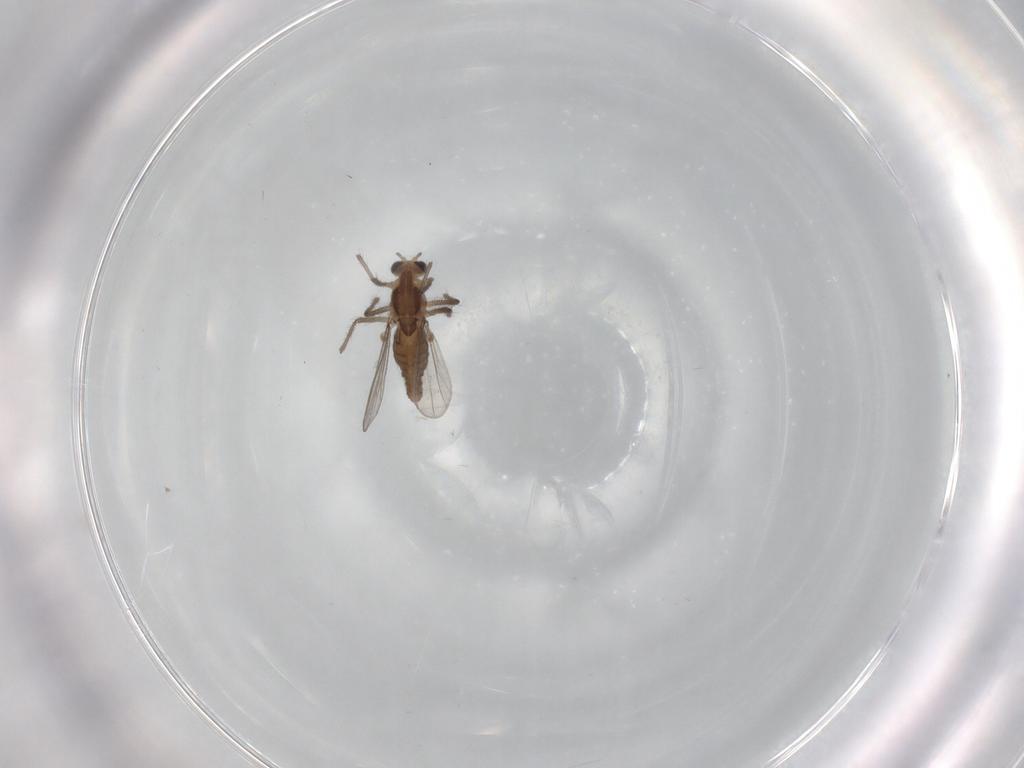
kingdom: Animalia
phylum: Arthropoda
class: Insecta
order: Diptera
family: Chironomidae
